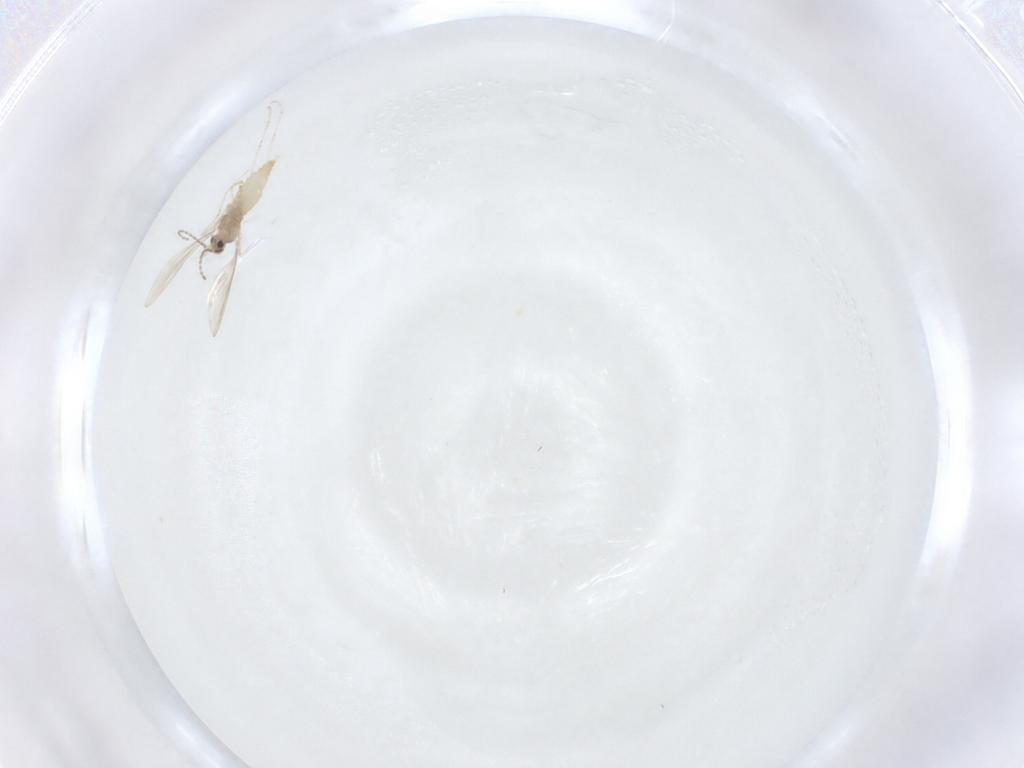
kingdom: Animalia
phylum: Arthropoda
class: Insecta
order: Diptera
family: Cecidomyiidae
